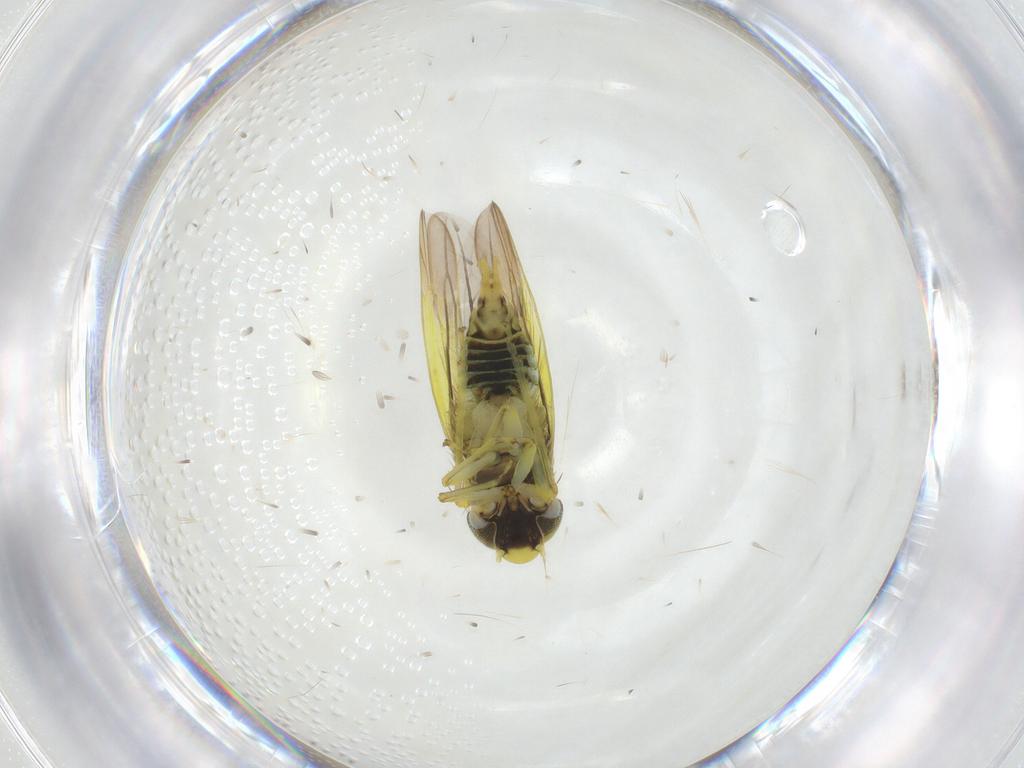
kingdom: Animalia
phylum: Arthropoda
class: Insecta
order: Hemiptera
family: Cicadellidae
